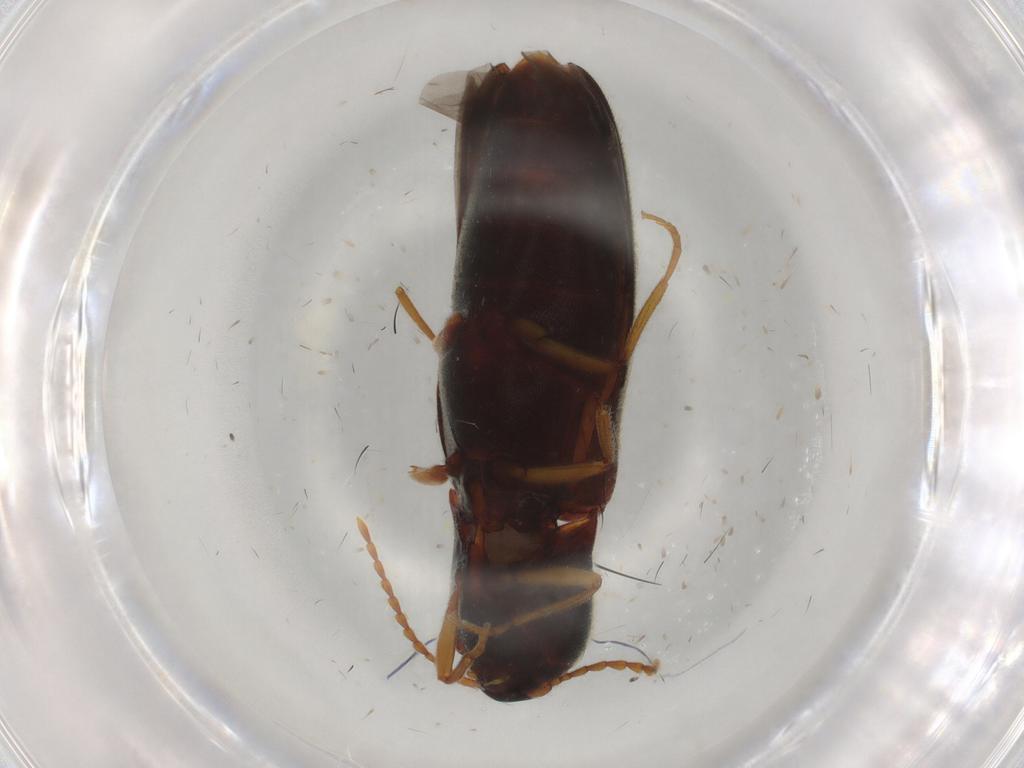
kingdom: Animalia
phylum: Arthropoda
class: Insecta
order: Coleoptera
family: Elateridae
